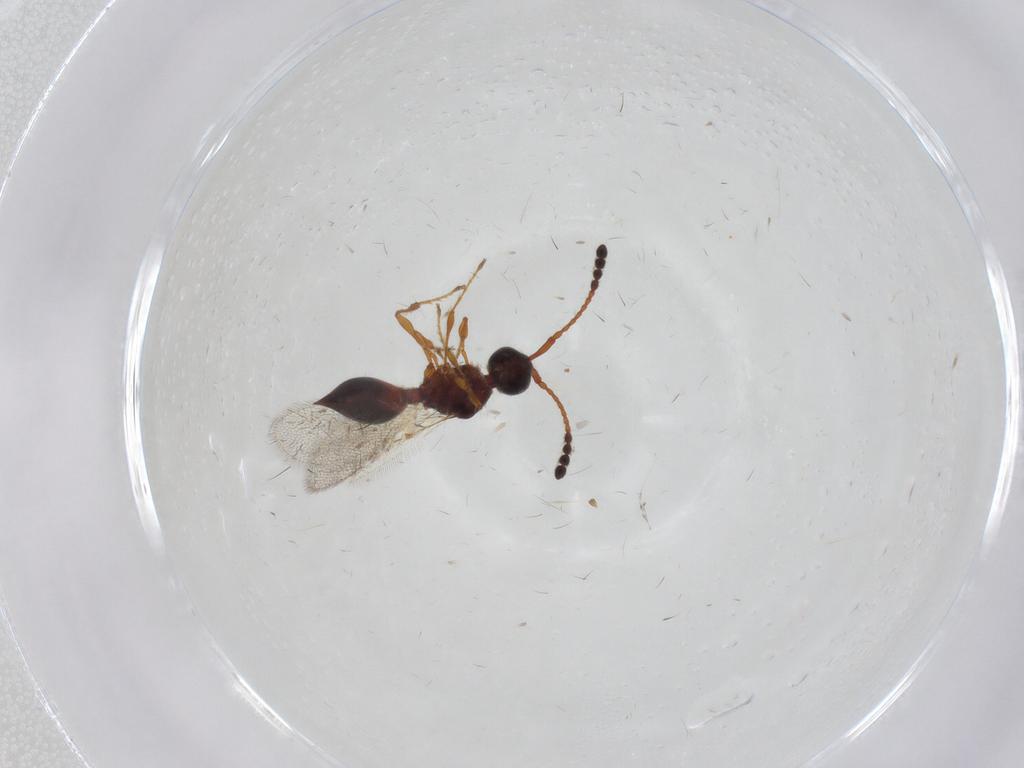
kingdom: Animalia
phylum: Arthropoda
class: Insecta
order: Hymenoptera
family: Diapriidae
